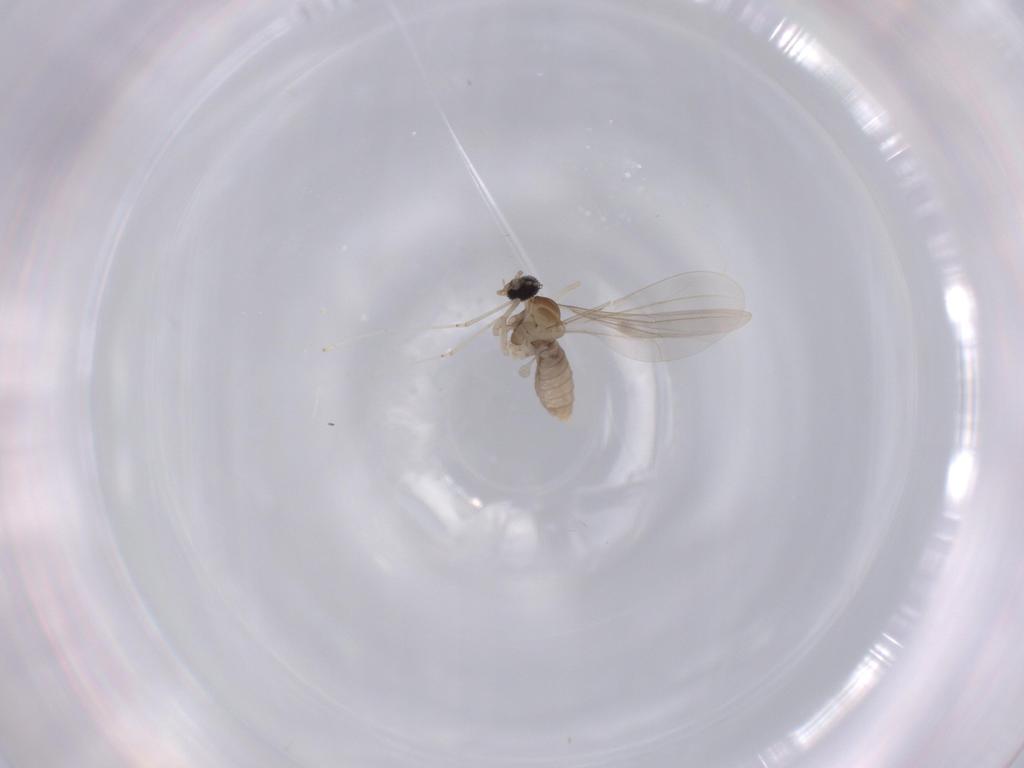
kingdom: Animalia
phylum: Arthropoda
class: Insecta
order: Diptera
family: Cecidomyiidae
